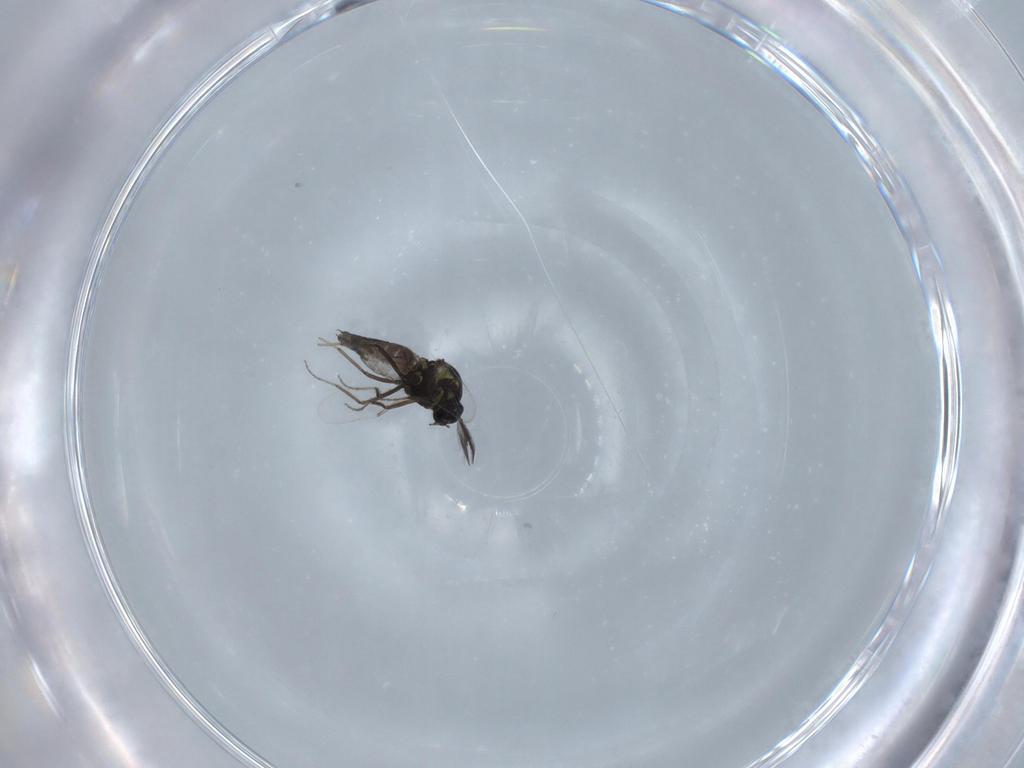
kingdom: Animalia
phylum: Arthropoda
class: Insecta
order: Diptera
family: Ceratopogonidae
